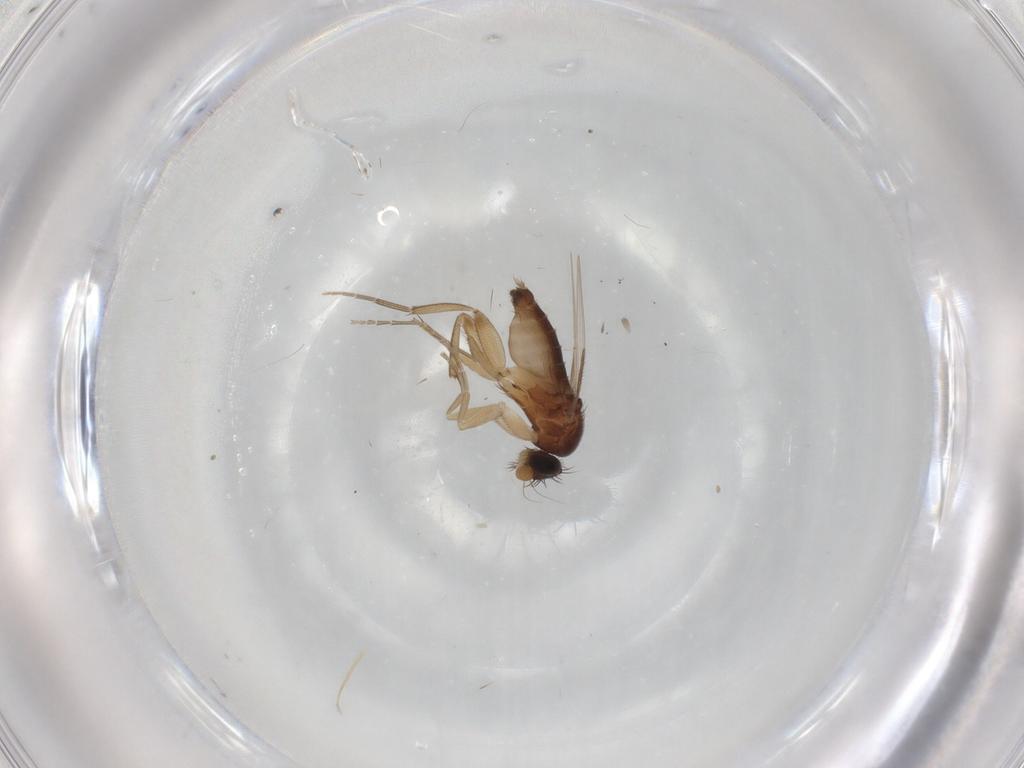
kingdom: Animalia
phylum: Arthropoda
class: Insecta
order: Diptera
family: Phoridae
